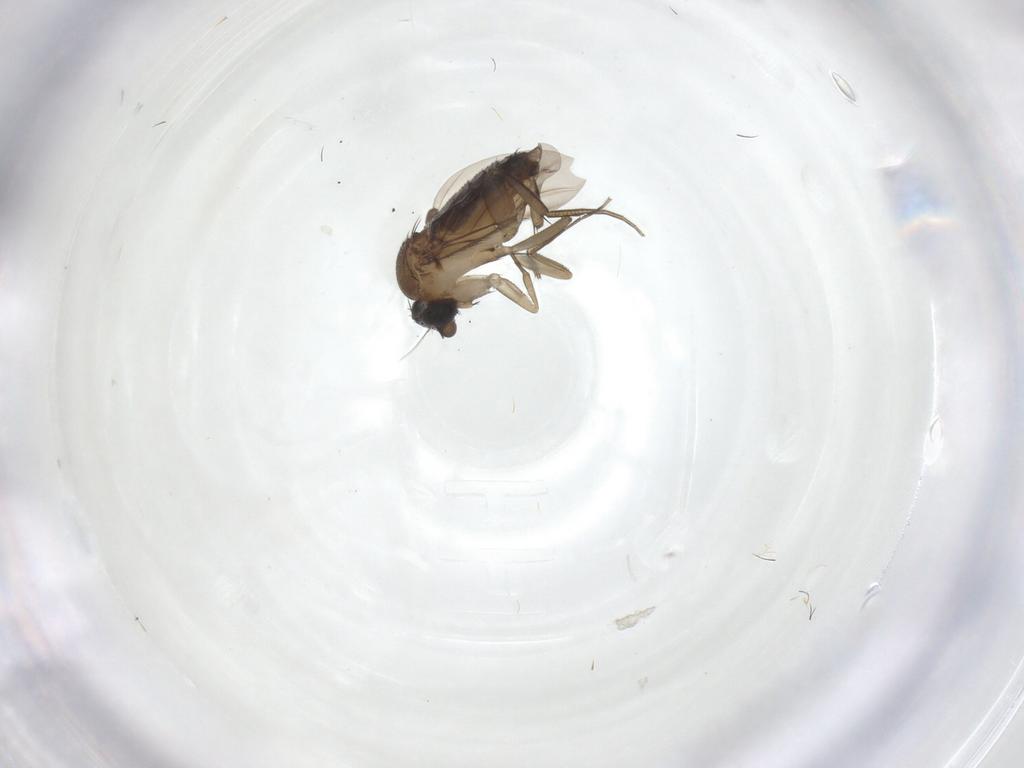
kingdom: Animalia
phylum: Arthropoda
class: Insecta
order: Diptera
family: Phoridae
